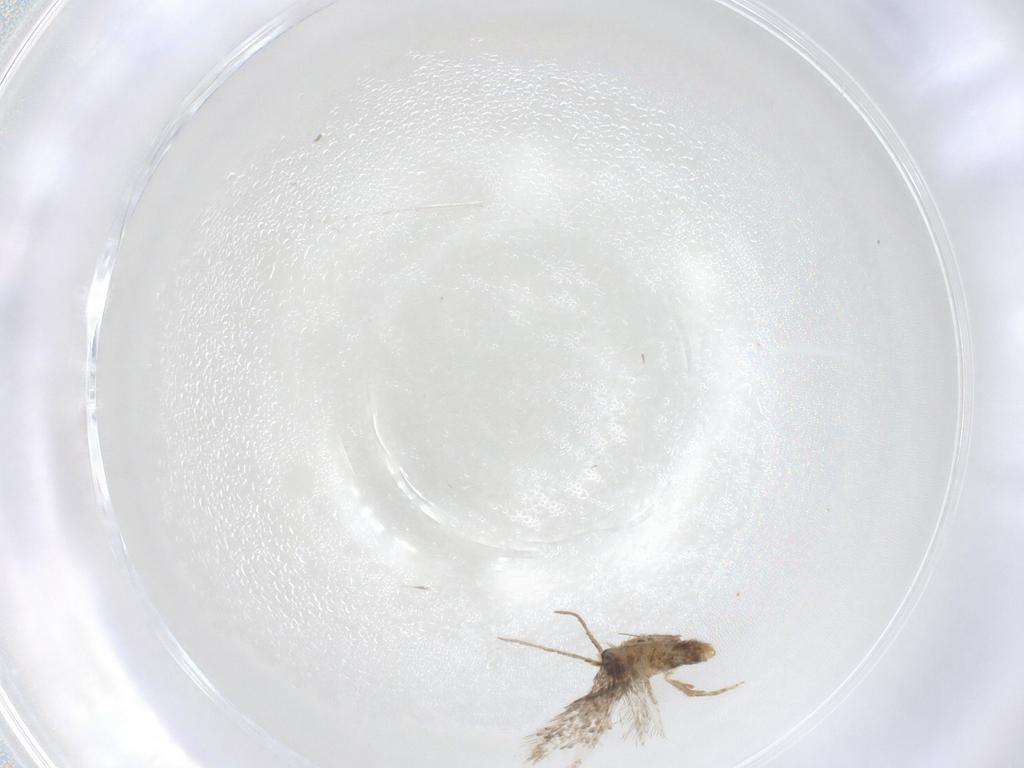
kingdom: Animalia
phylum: Arthropoda
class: Insecta
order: Lepidoptera
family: Nepticulidae
